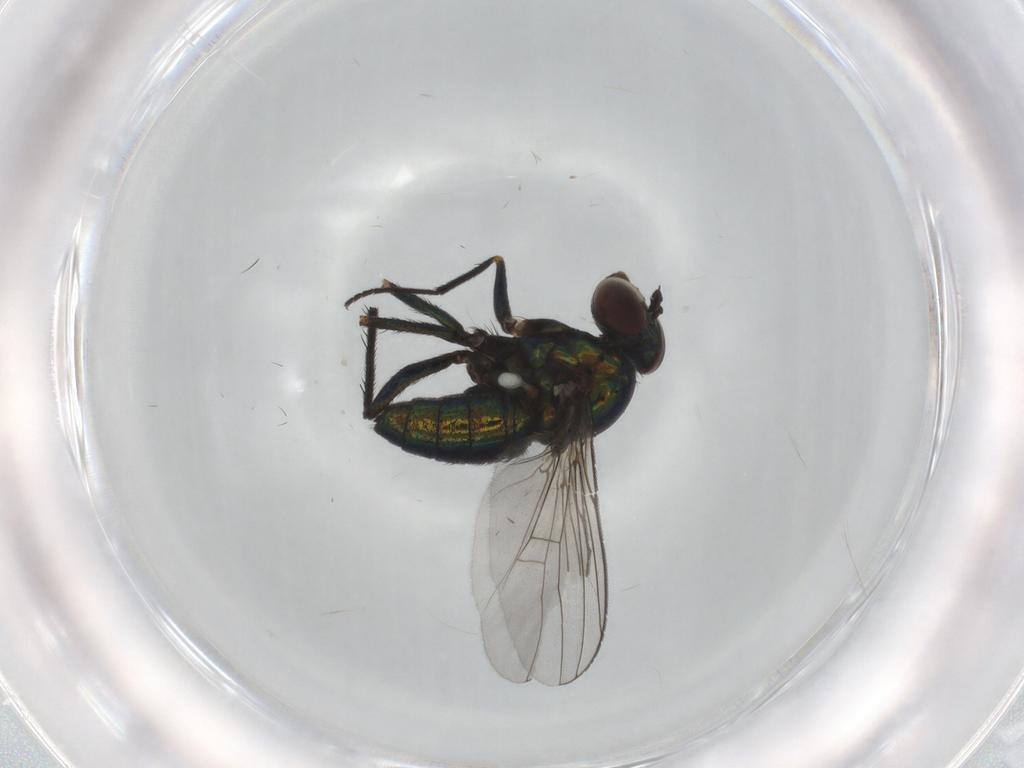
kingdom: Animalia
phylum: Arthropoda
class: Insecta
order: Diptera
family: Dolichopodidae
